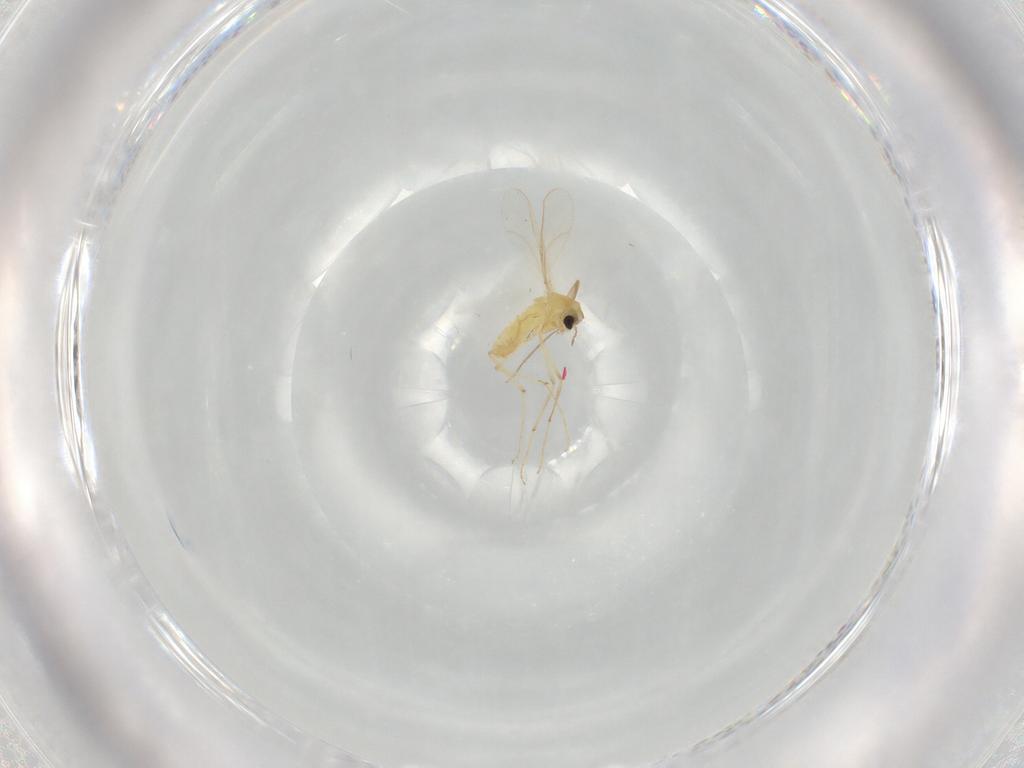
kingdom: Animalia
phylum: Arthropoda
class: Insecta
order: Diptera
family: Chironomidae
